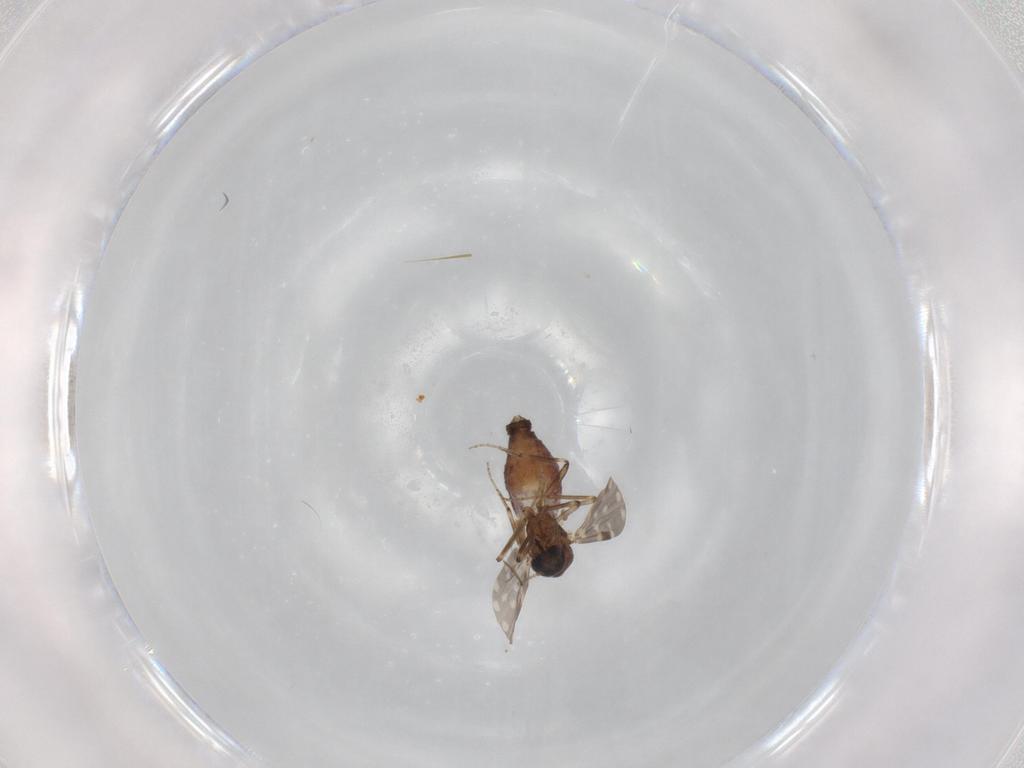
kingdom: Animalia
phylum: Arthropoda
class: Insecta
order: Diptera
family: Ceratopogonidae
